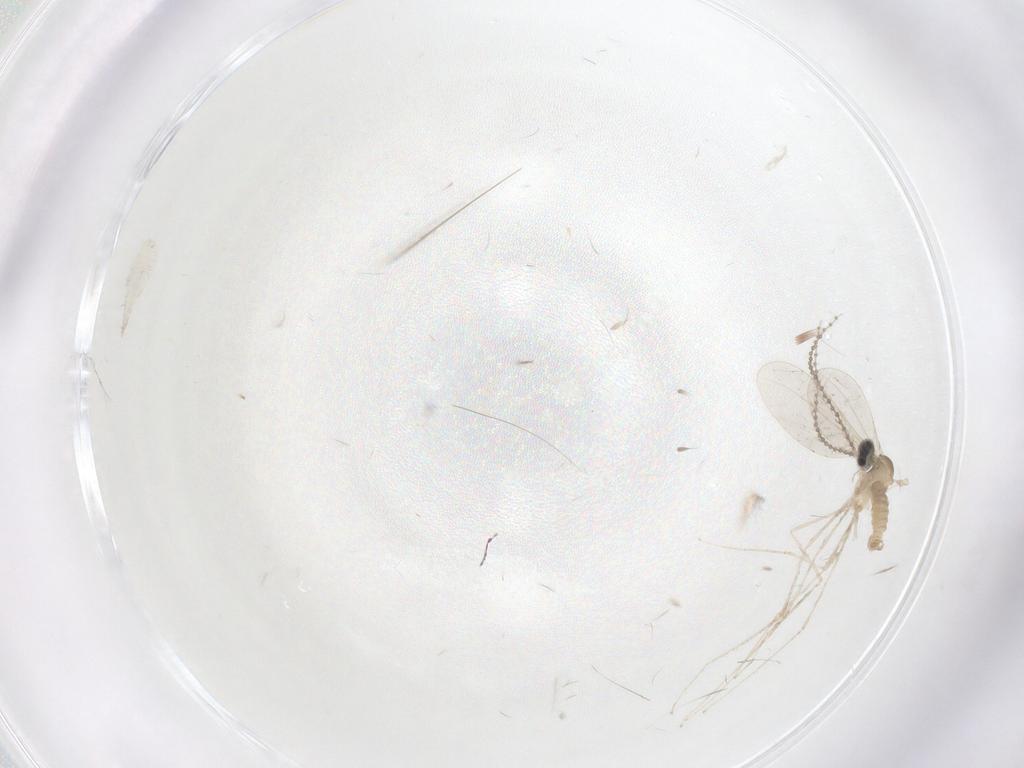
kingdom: Animalia
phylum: Arthropoda
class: Insecta
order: Diptera
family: Cecidomyiidae
